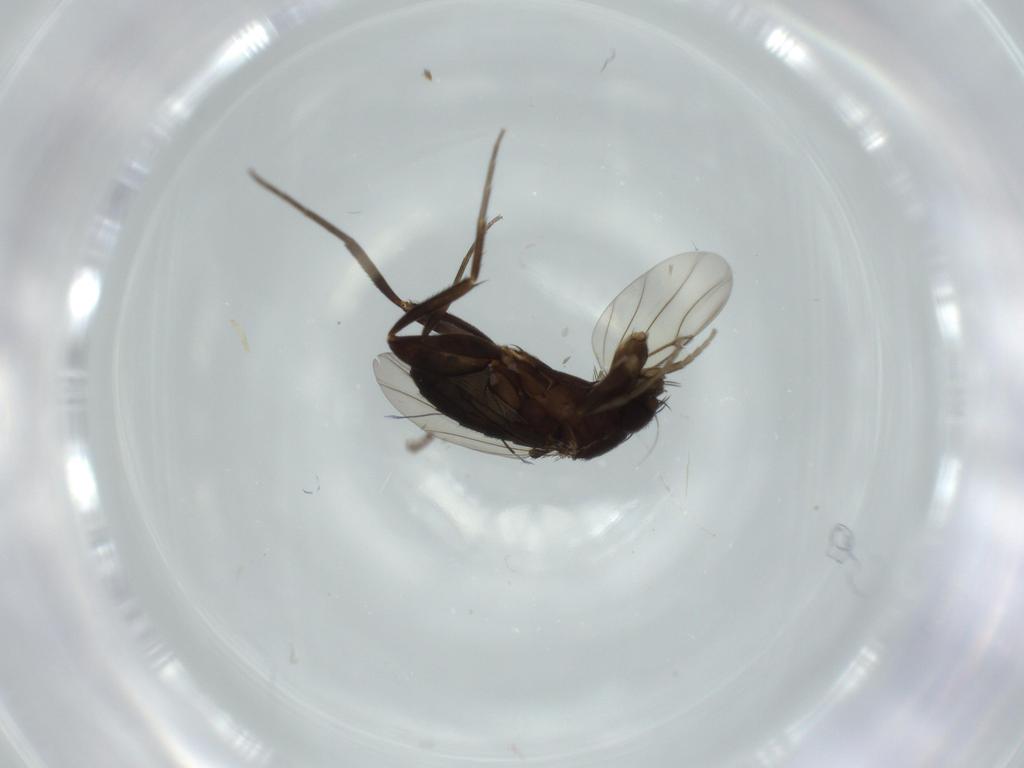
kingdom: Animalia
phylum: Arthropoda
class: Insecta
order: Diptera
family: Phoridae
